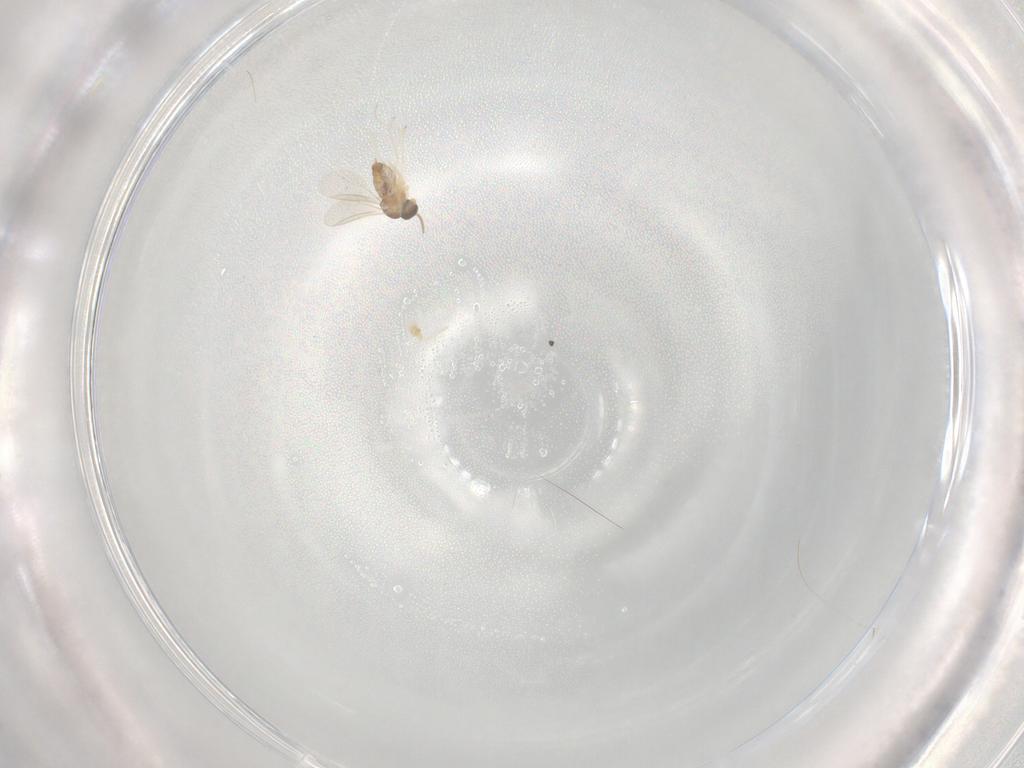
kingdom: Animalia
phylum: Arthropoda
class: Insecta
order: Diptera
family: Cecidomyiidae
